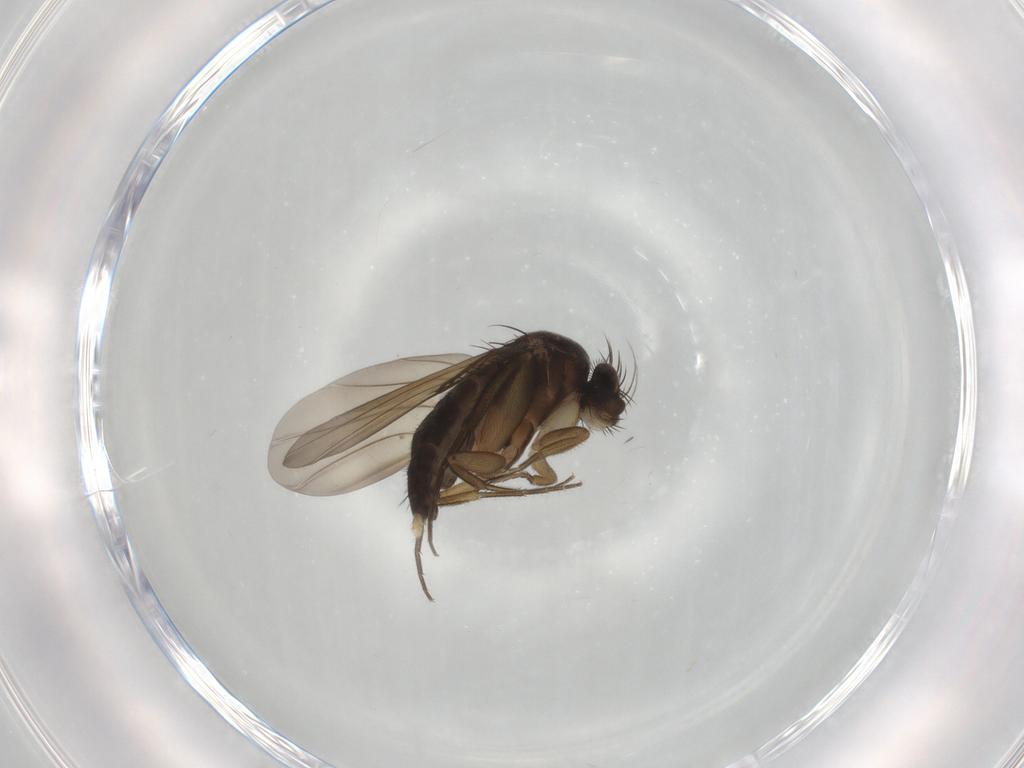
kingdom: Animalia
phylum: Arthropoda
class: Insecta
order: Diptera
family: Phoridae
